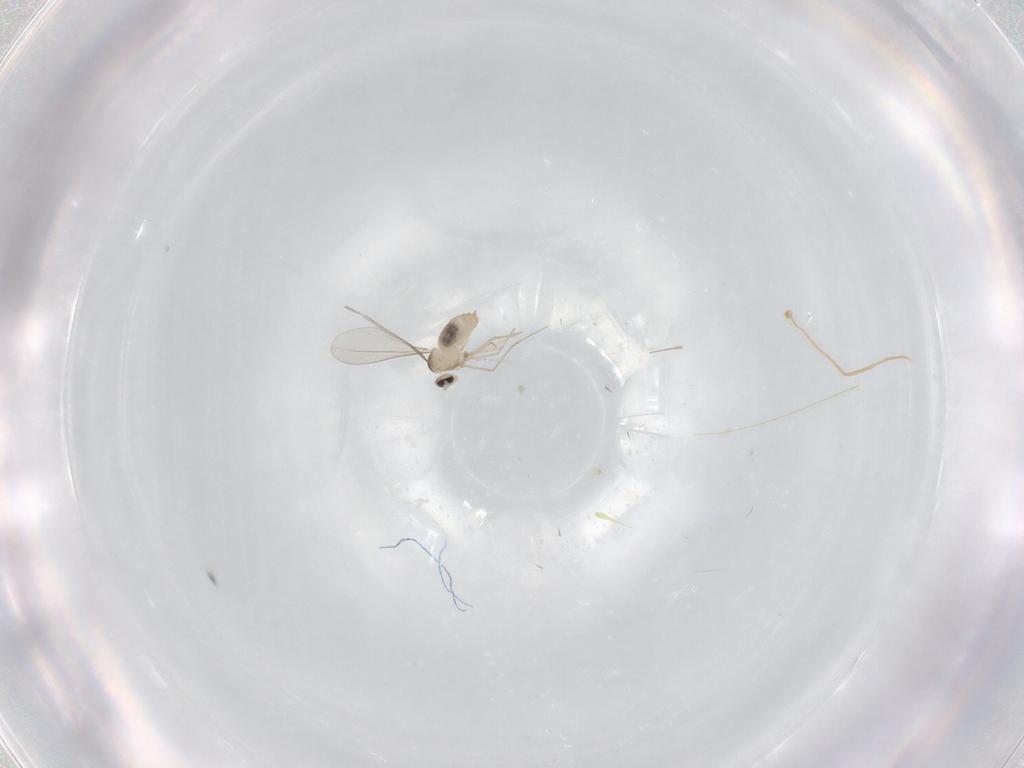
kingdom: Animalia
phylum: Arthropoda
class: Insecta
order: Diptera
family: Cecidomyiidae
